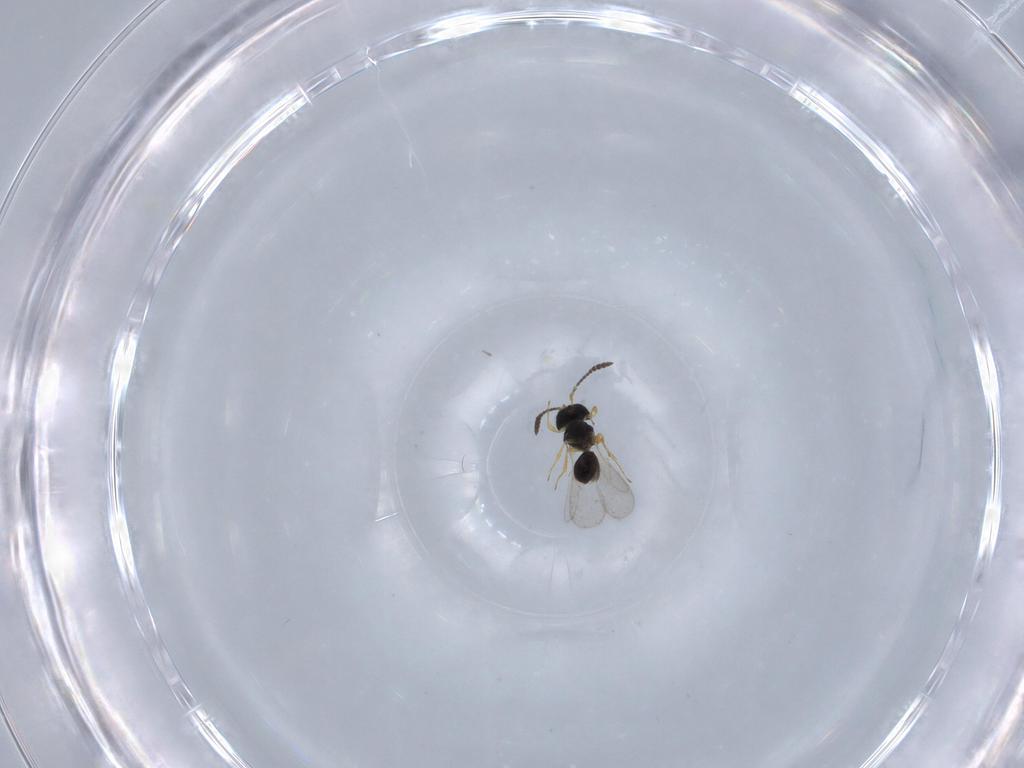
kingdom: Animalia
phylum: Arthropoda
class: Insecta
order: Hymenoptera
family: Scelionidae
